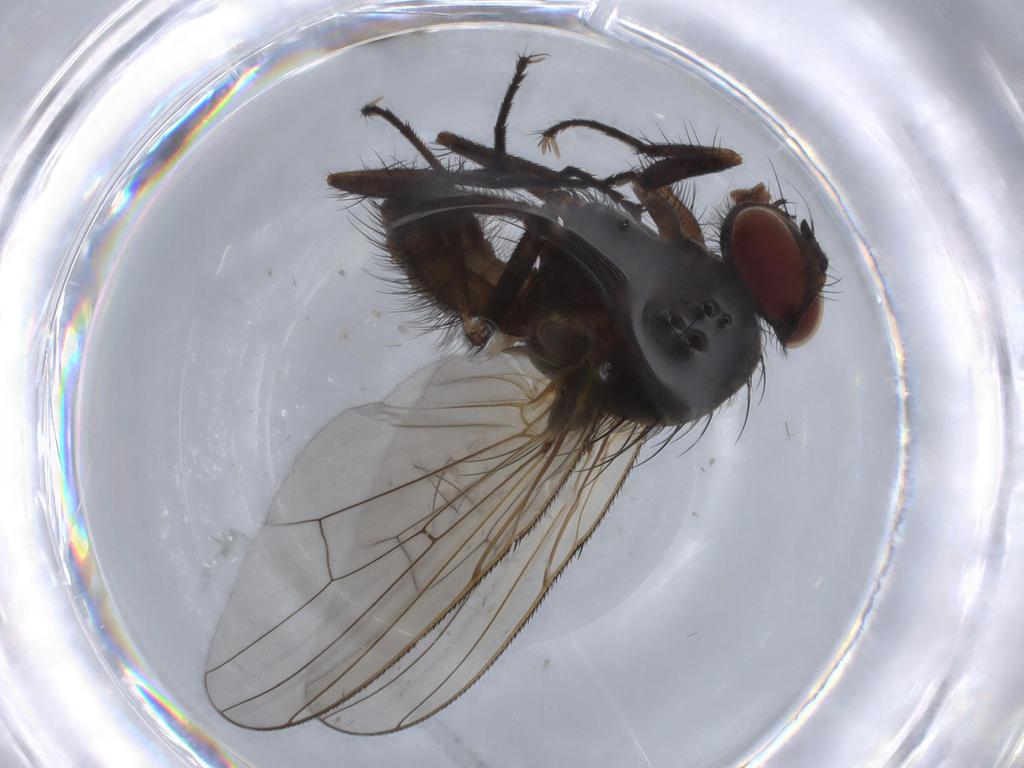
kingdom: Animalia
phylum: Arthropoda
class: Insecta
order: Diptera
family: Anthomyiidae
